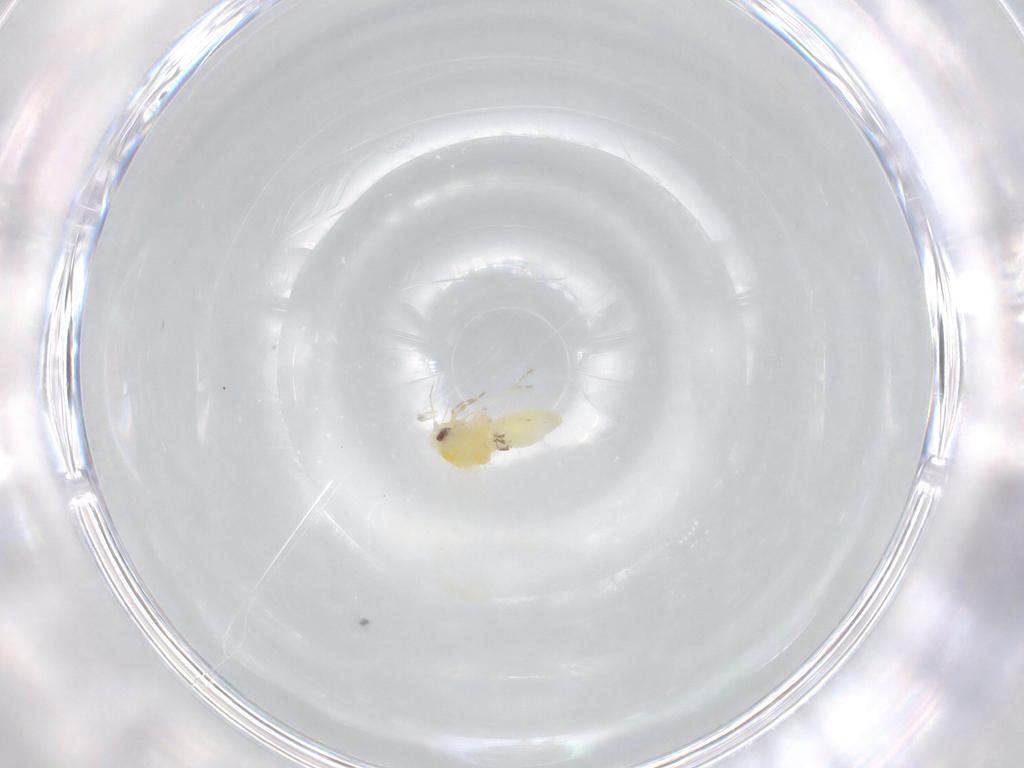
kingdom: Animalia
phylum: Arthropoda
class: Insecta
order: Hemiptera
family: Aleyrodidae
